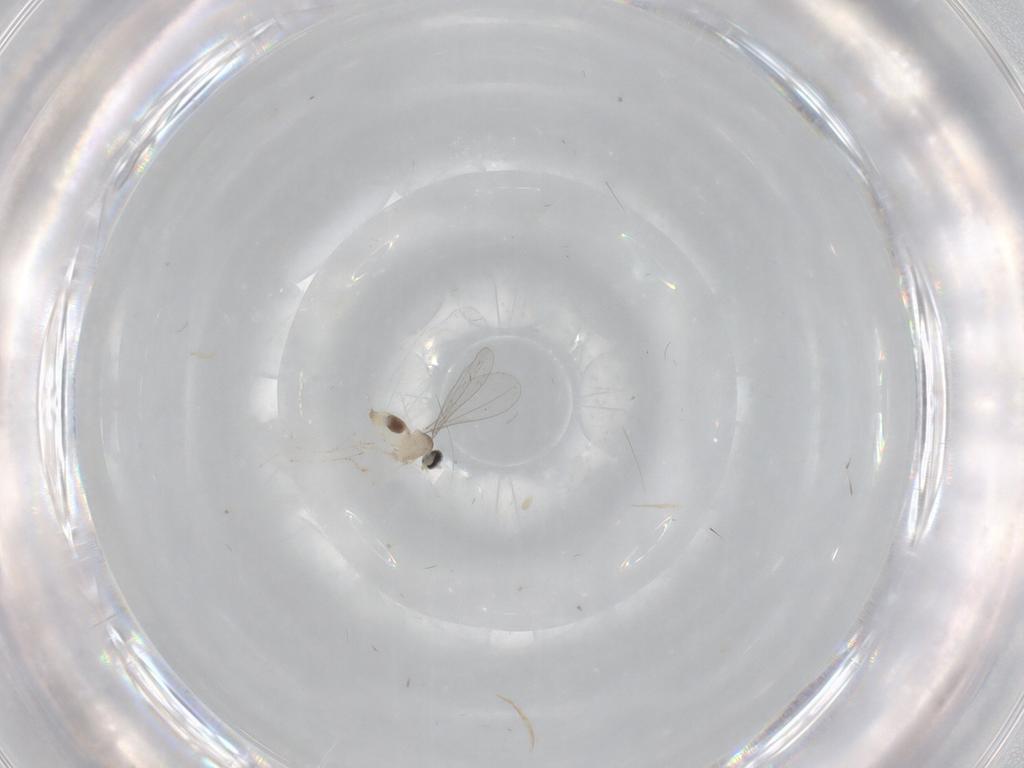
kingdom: Animalia
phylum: Arthropoda
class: Insecta
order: Diptera
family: Cecidomyiidae
